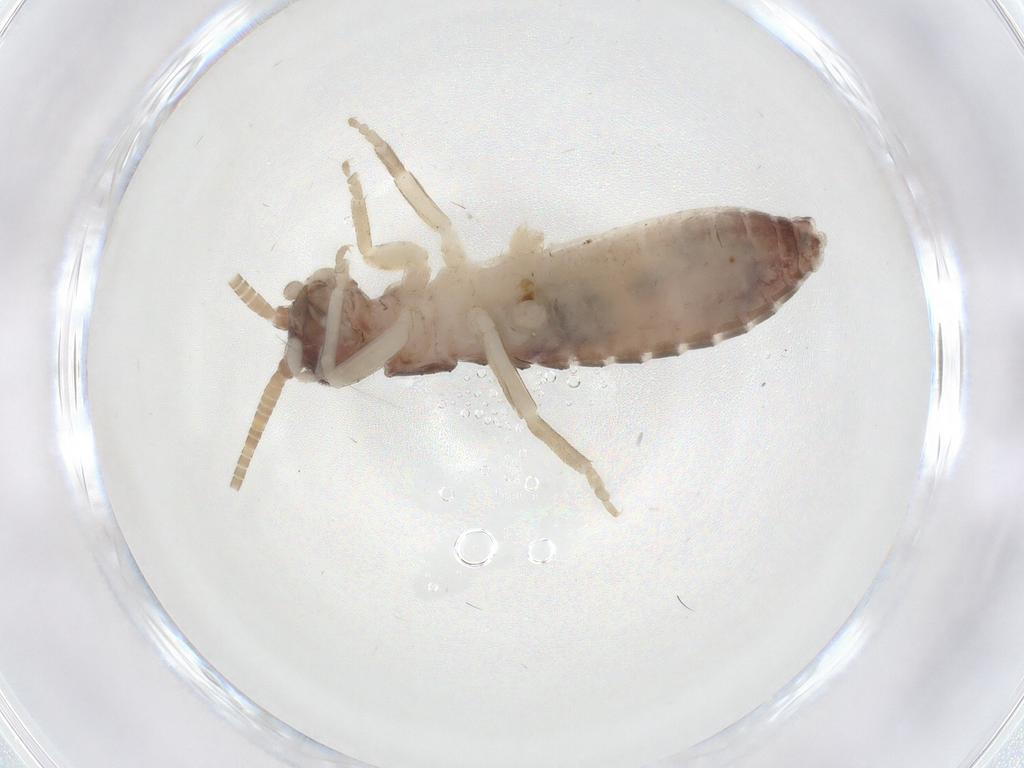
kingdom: Animalia
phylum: Arthropoda
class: Insecta
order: Orthoptera
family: Gryllidae
